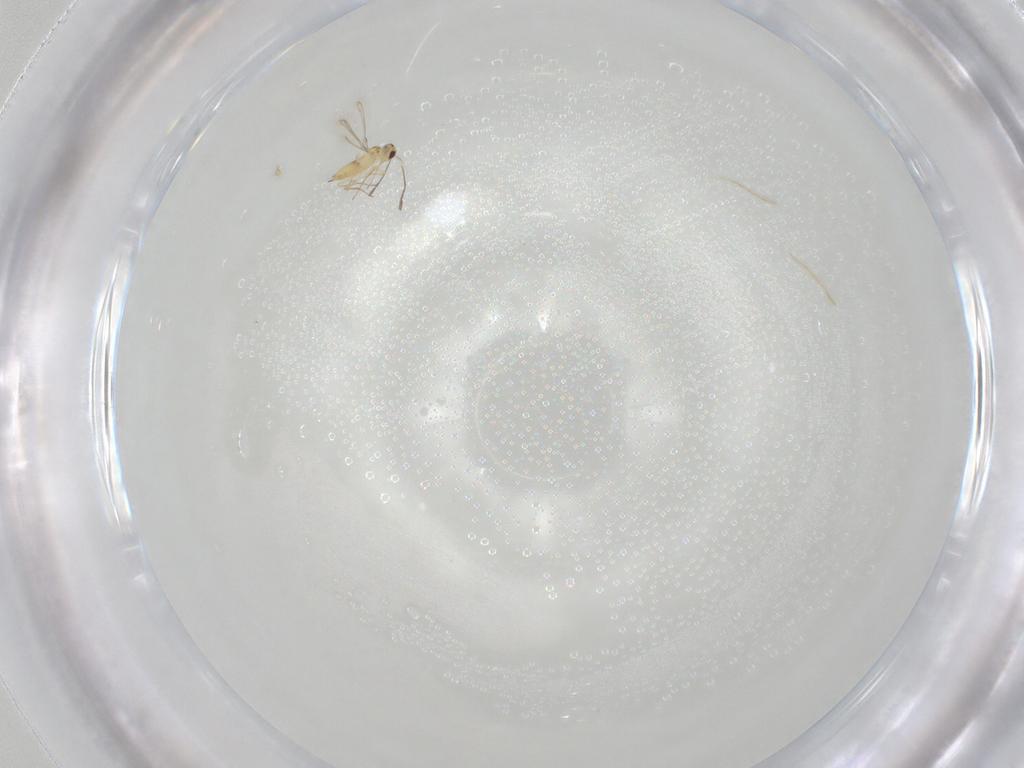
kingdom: Animalia
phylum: Arthropoda
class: Insecta
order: Hymenoptera
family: Mymaridae
